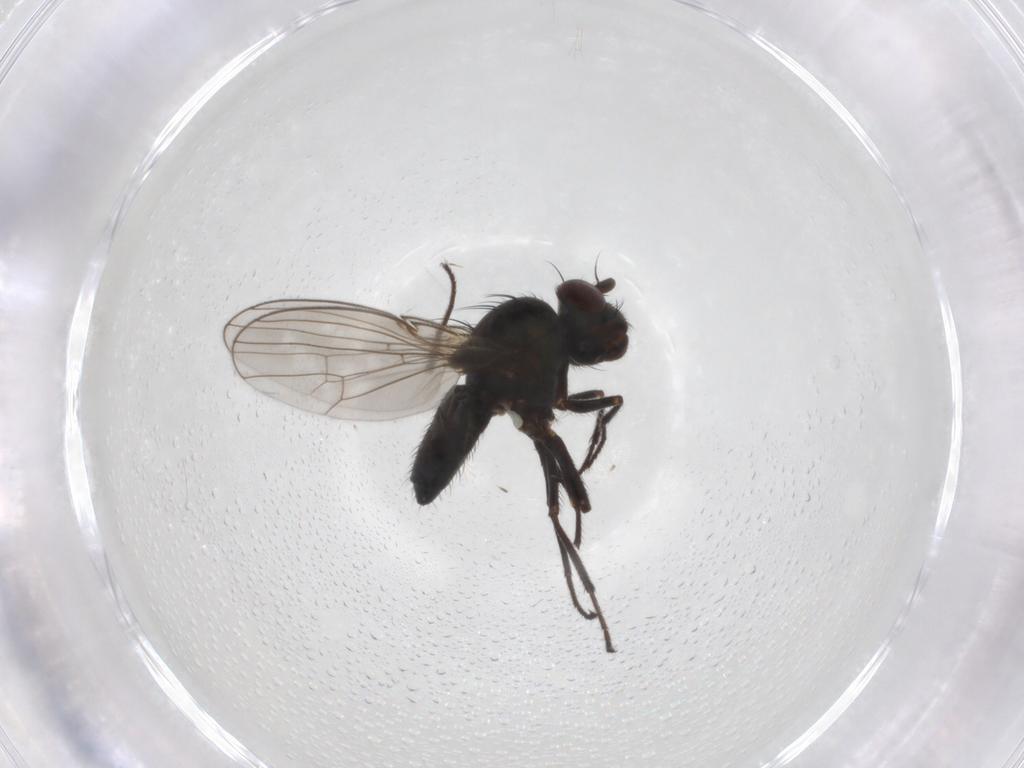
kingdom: Animalia
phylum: Arthropoda
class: Insecta
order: Diptera
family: Ephydridae
